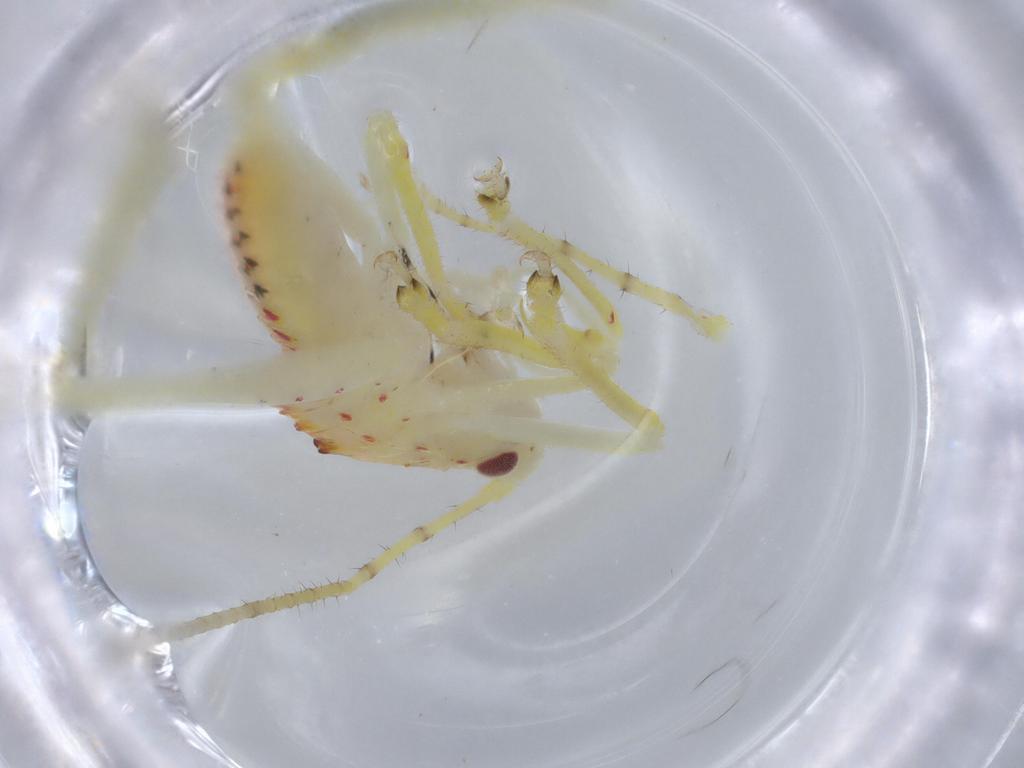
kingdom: Animalia
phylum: Arthropoda
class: Insecta
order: Orthoptera
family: Tettigoniidae
